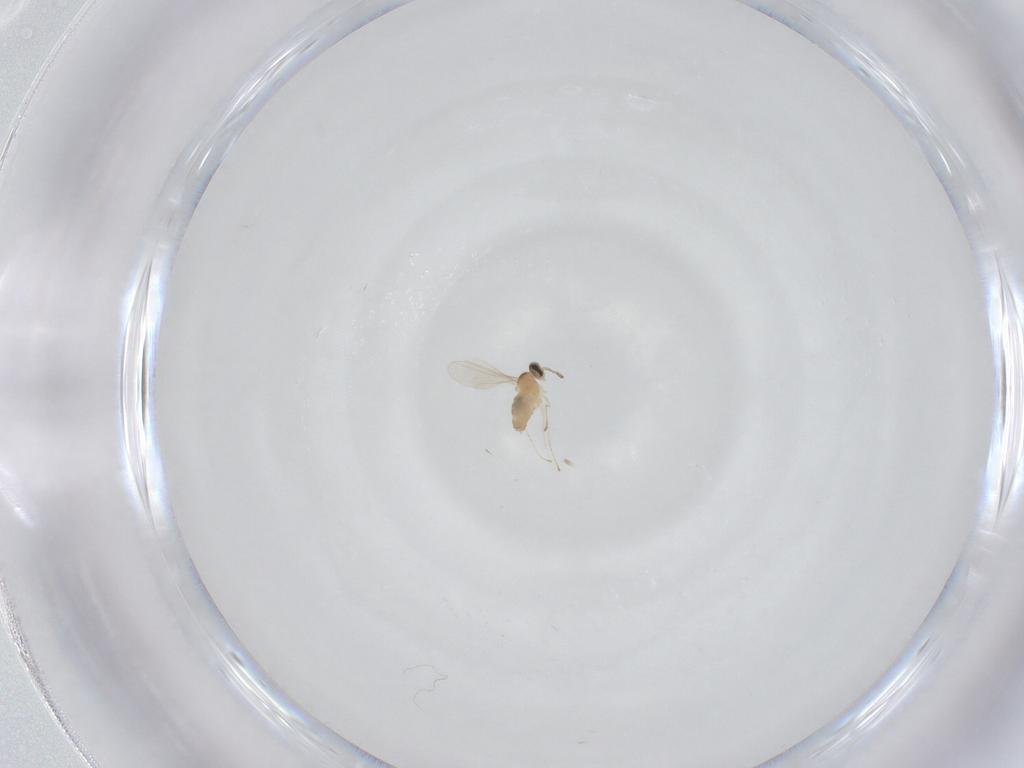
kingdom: Animalia
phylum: Arthropoda
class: Insecta
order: Diptera
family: Cecidomyiidae
